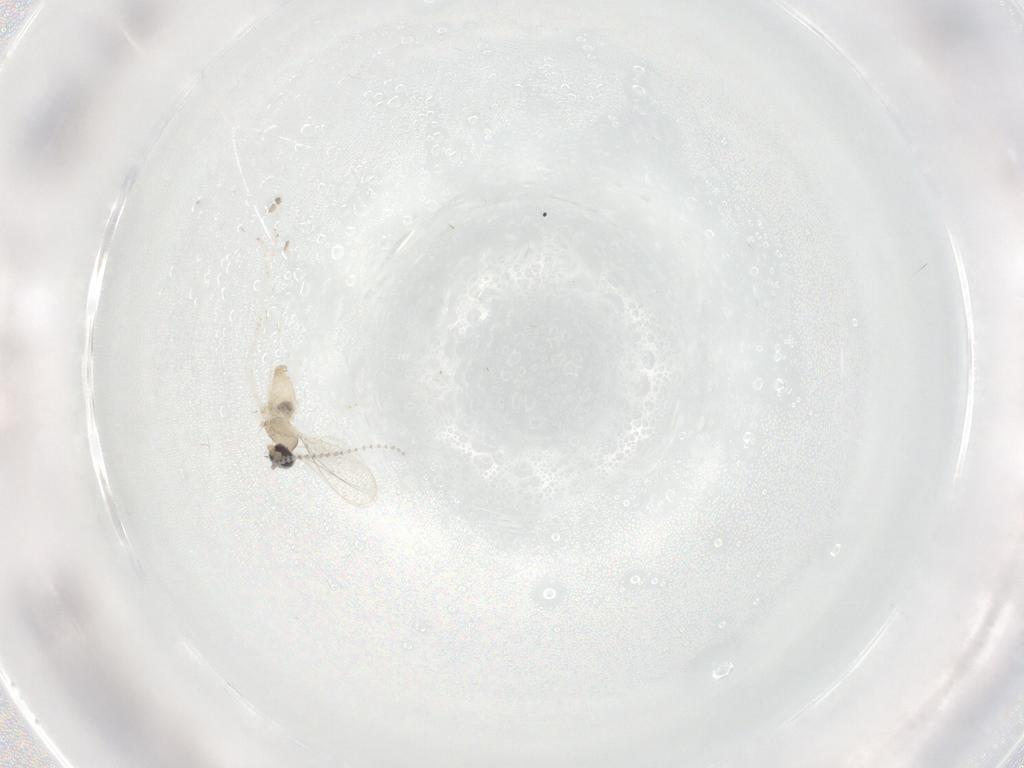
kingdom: Animalia
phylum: Arthropoda
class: Insecta
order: Diptera
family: Cecidomyiidae
